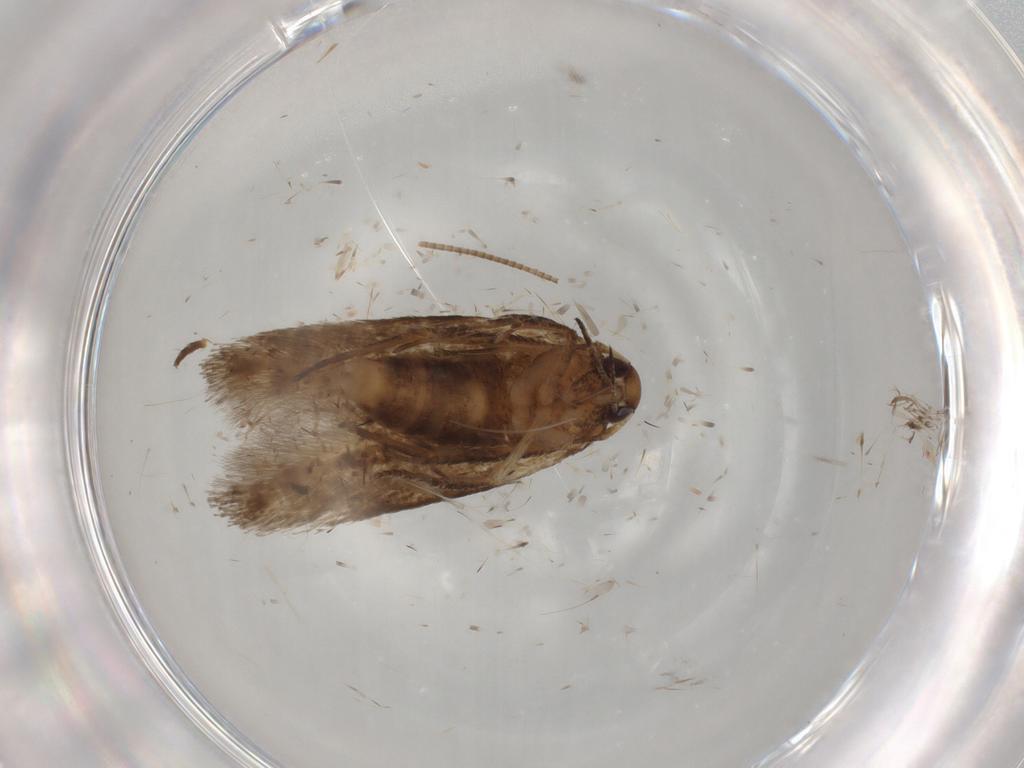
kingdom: Animalia
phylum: Arthropoda
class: Insecta
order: Lepidoptera
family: Cosmopterigidae
